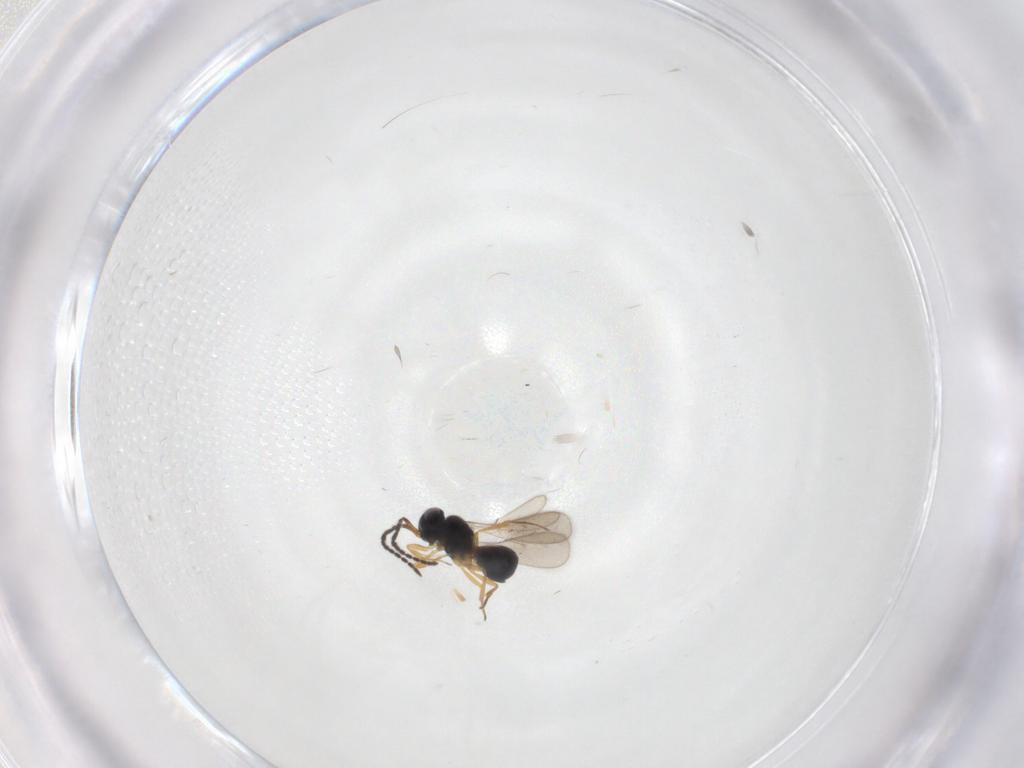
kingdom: Animalia
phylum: Arthropoda
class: Insecta
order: Hymenoptera
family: Scelionidae
